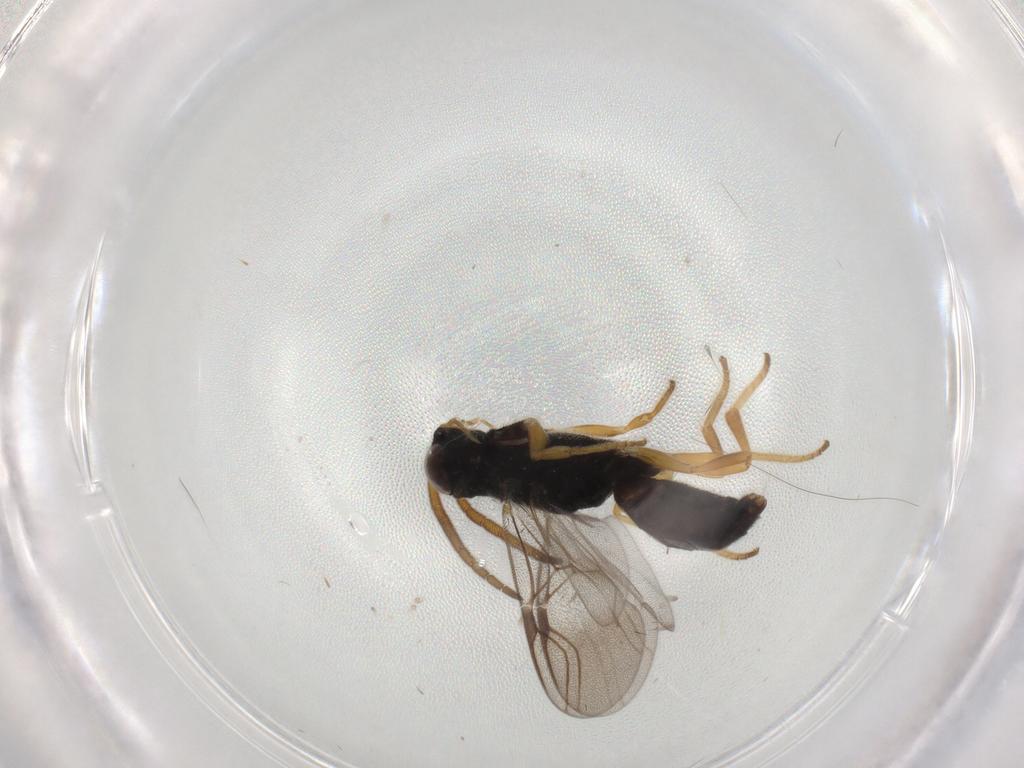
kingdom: Animalia
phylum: Arthropoda
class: Insecta
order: Hymenoptera
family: Dryinidae
